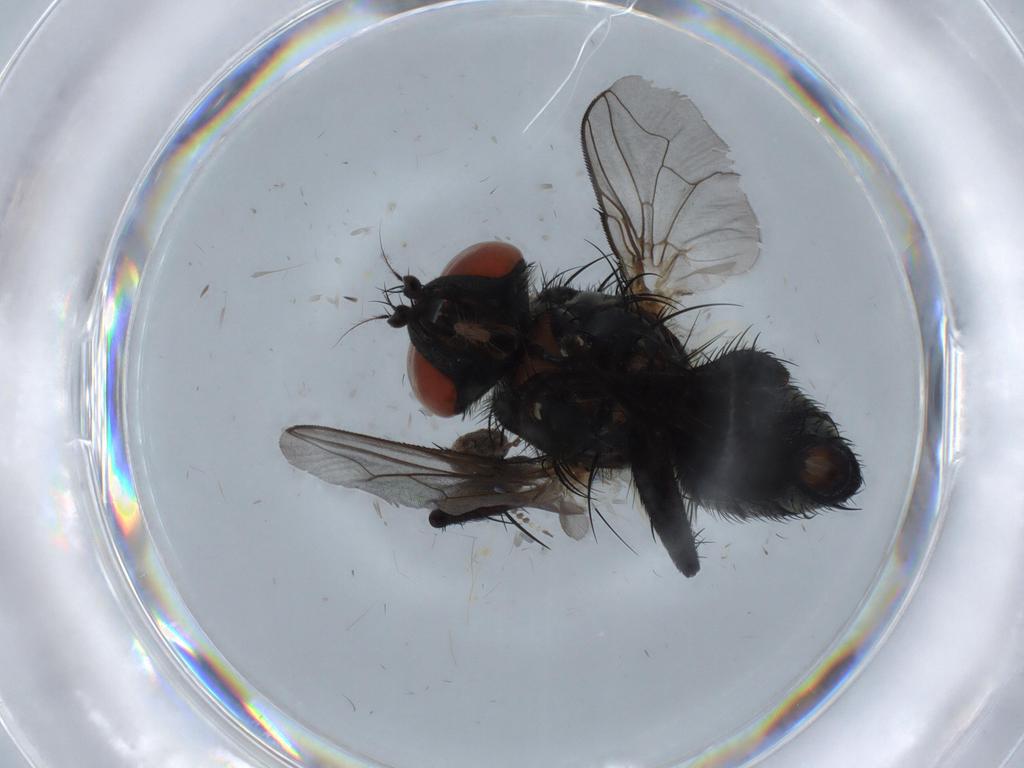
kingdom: Animalia
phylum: Arthropoda
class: Insecta
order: Diptera
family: Sarcophagidae
